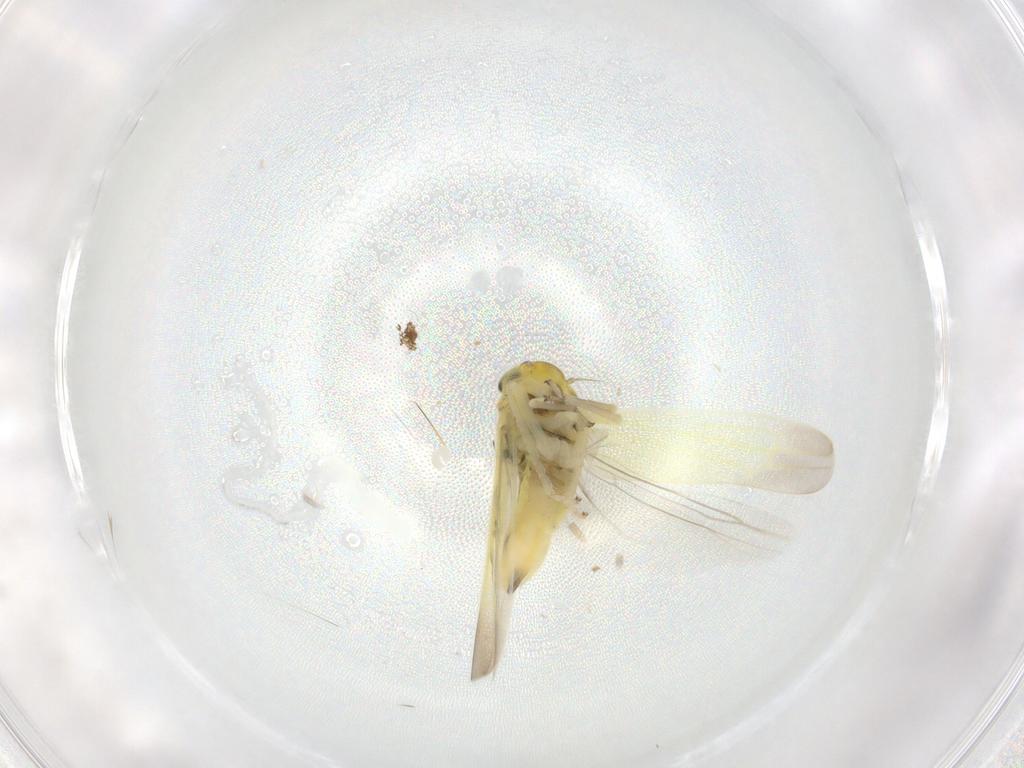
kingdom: Animalia
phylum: Arthropoda
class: Insecta
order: Hemiptera
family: Cicadellidae
